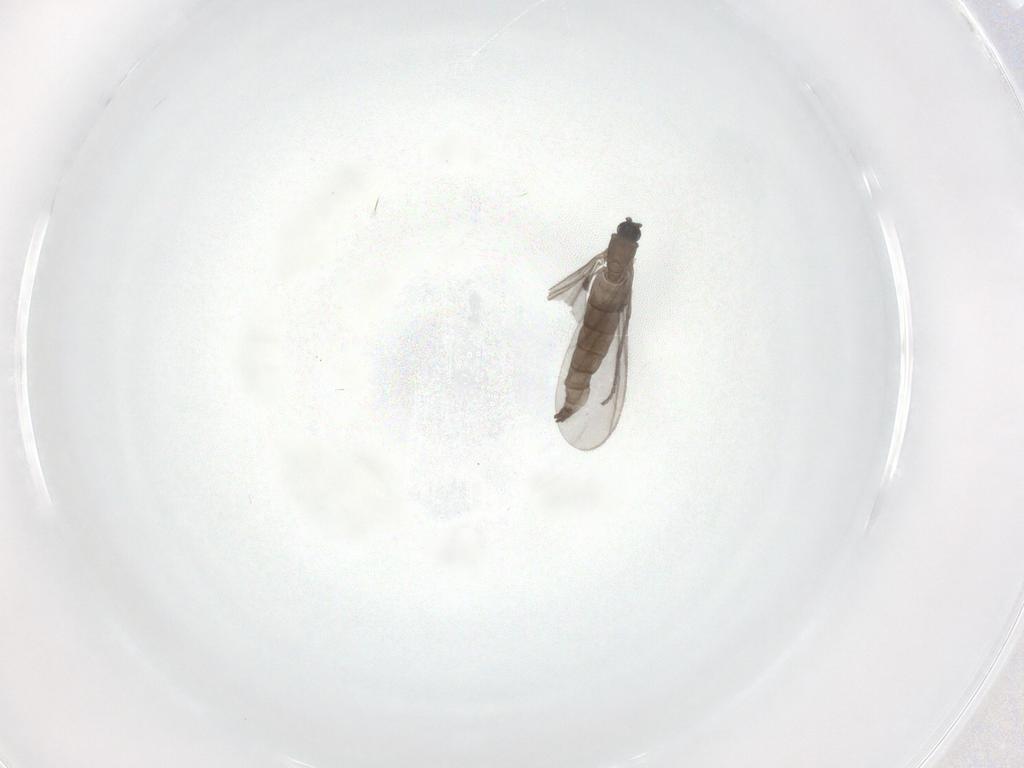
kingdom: Animalia
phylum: Arthropoda
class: Insecta
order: Diptera
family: Sciaridae
